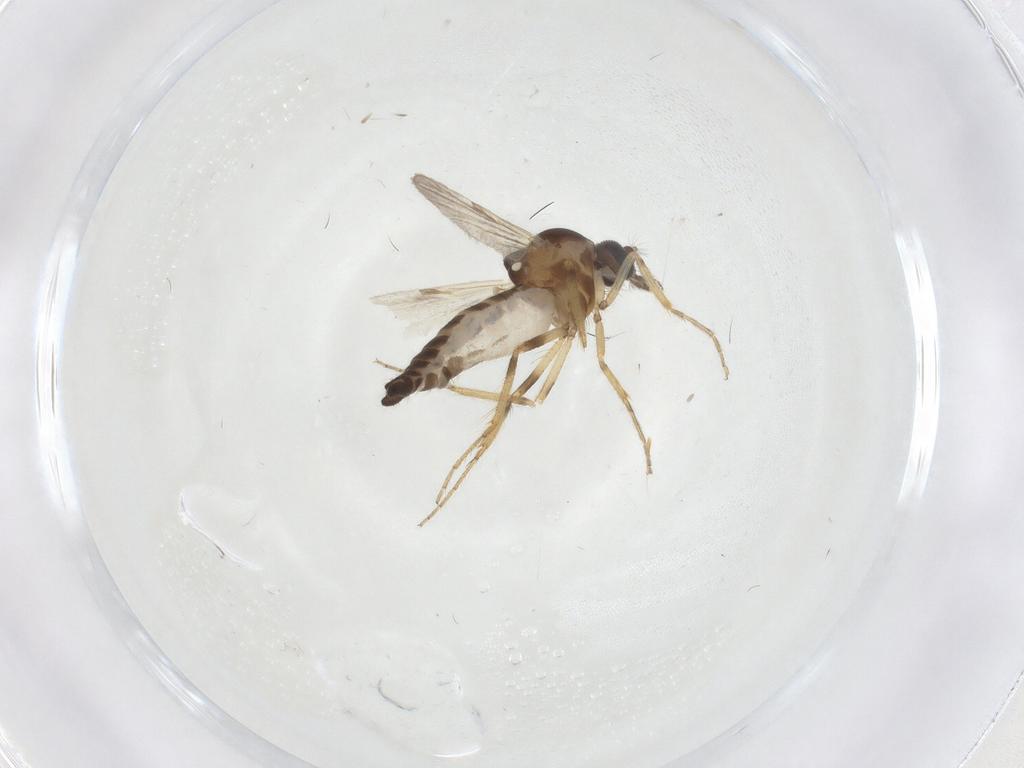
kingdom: Animalia
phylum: Arthropoda
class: Insecta
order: Diptera
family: Ceratopogonidae
